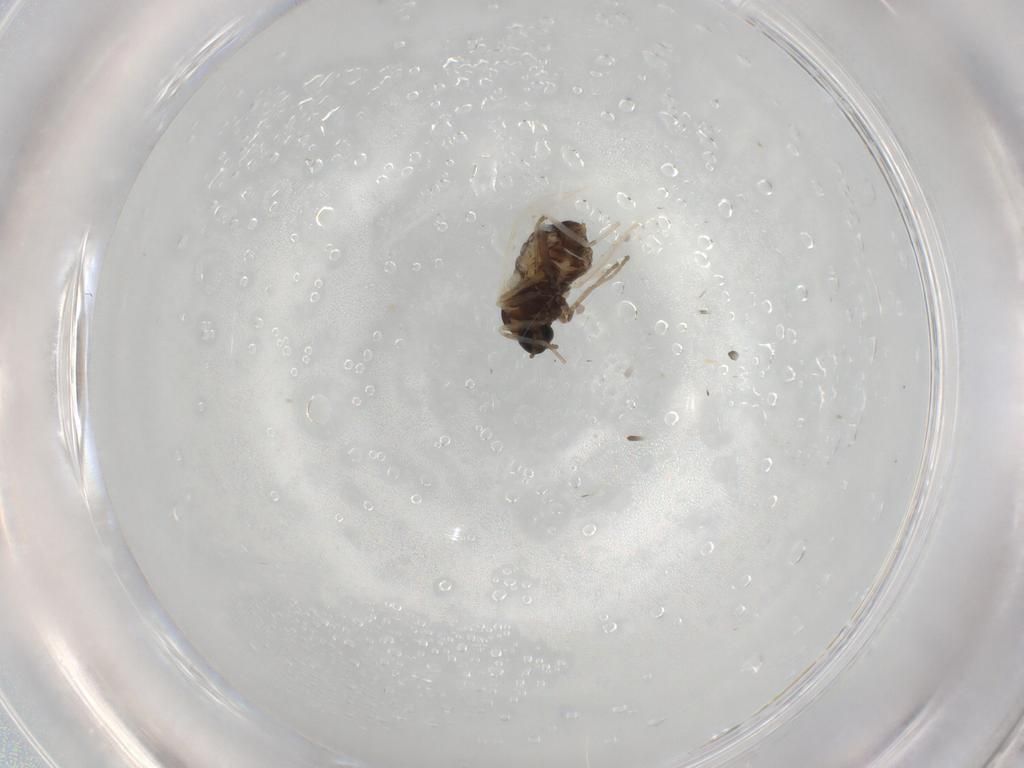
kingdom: Animalia
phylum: Arthropoda
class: Insecta
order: Diptera
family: Cecidomyiidae
